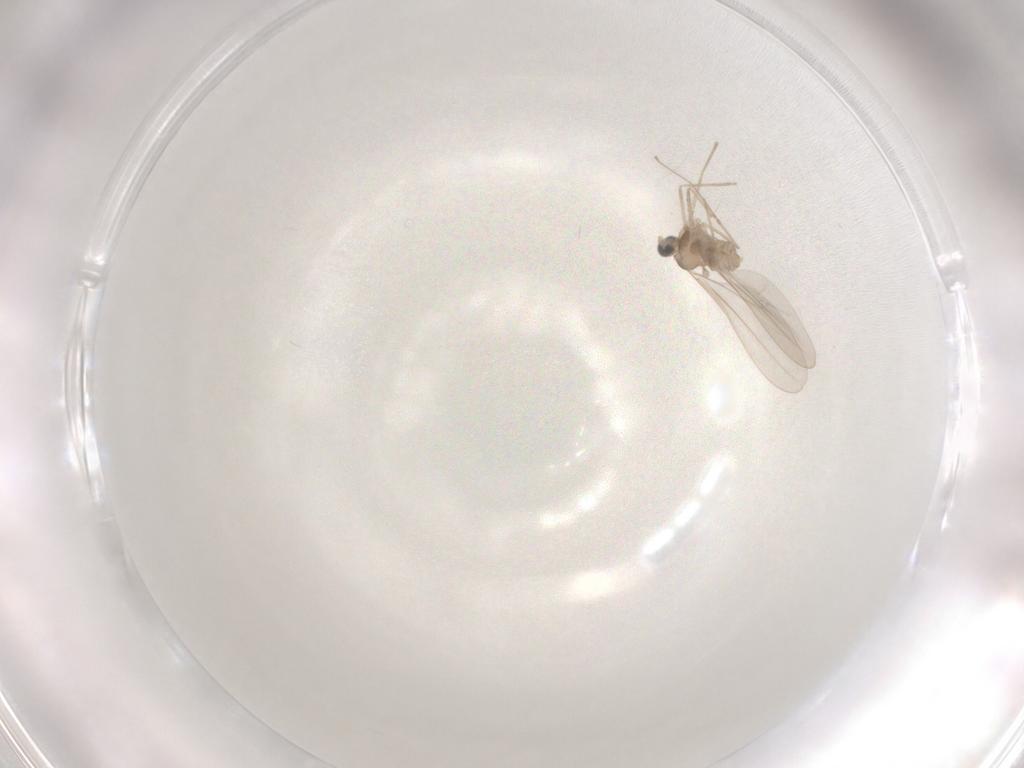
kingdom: Animalia
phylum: Arthropoda
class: Insecta
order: Diptera
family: Cecidomyiidae
